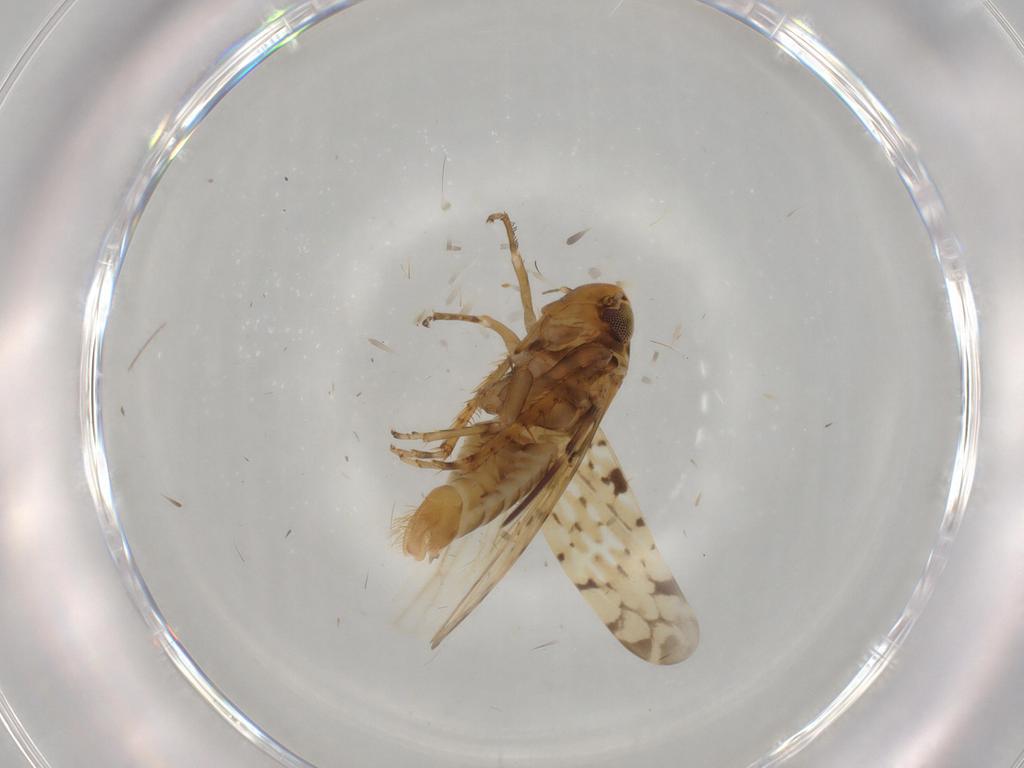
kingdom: Animalia
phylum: Arthropoda
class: Insecta
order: Hemiptera
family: Cicadellidae
